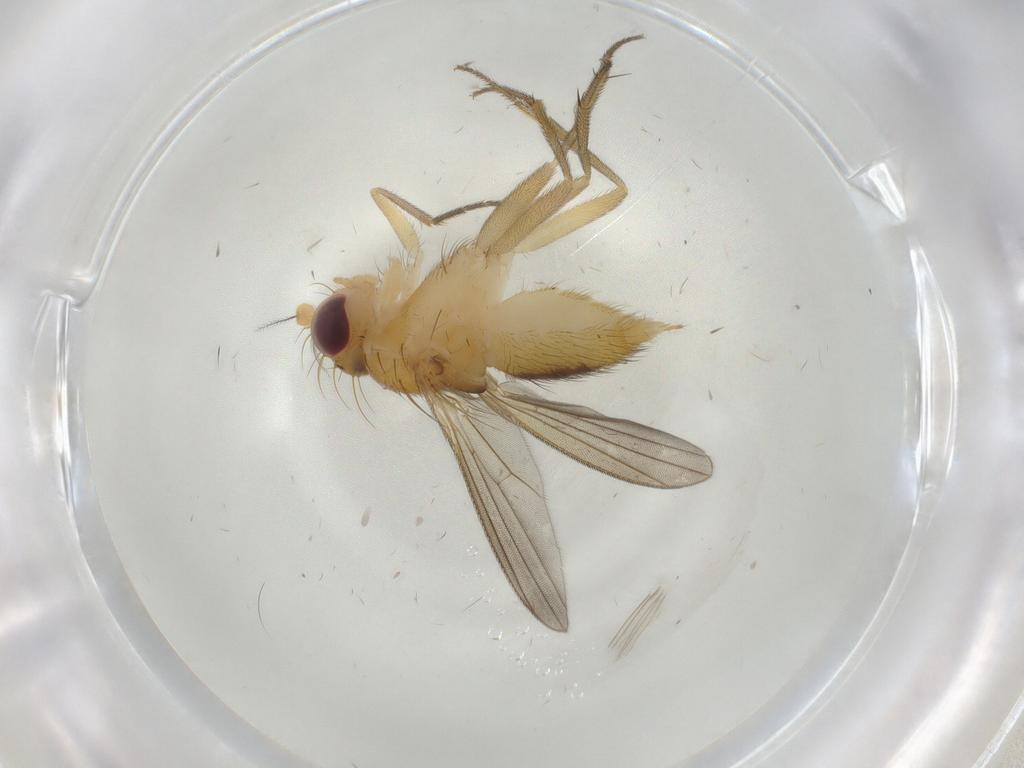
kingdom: Animalia
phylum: Arthropoda
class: Insecta
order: Diptera
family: Clusiidae
